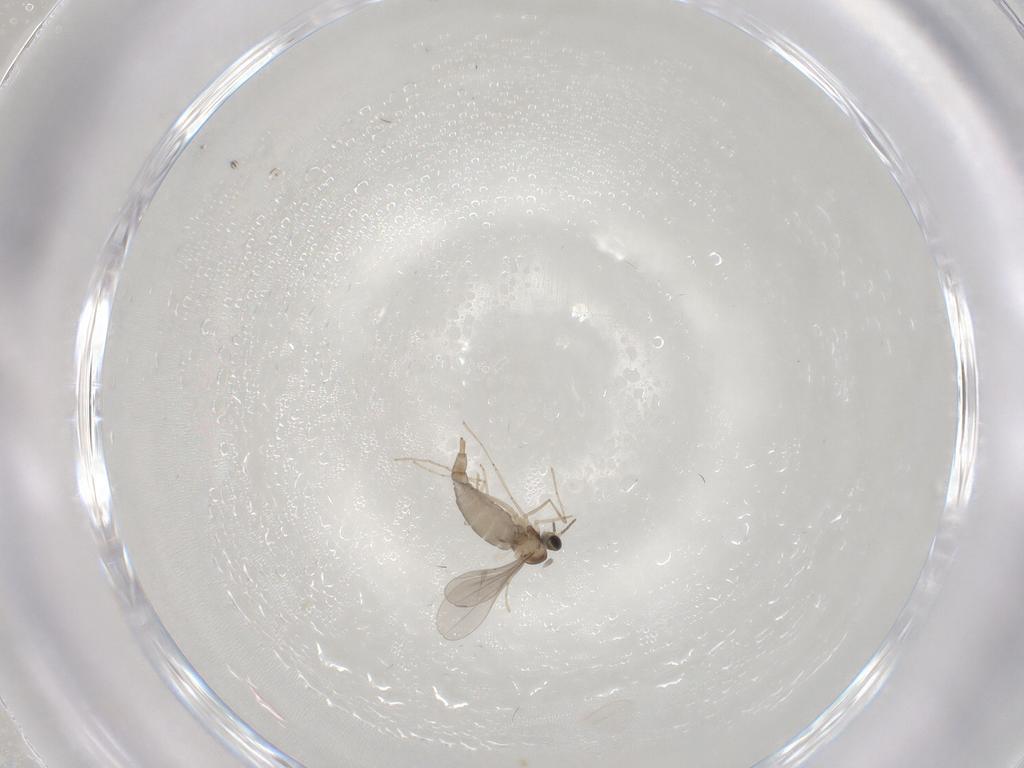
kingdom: Animalia
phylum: Arthropoda
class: Insecta
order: Diptera
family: Cecidomyiidae
